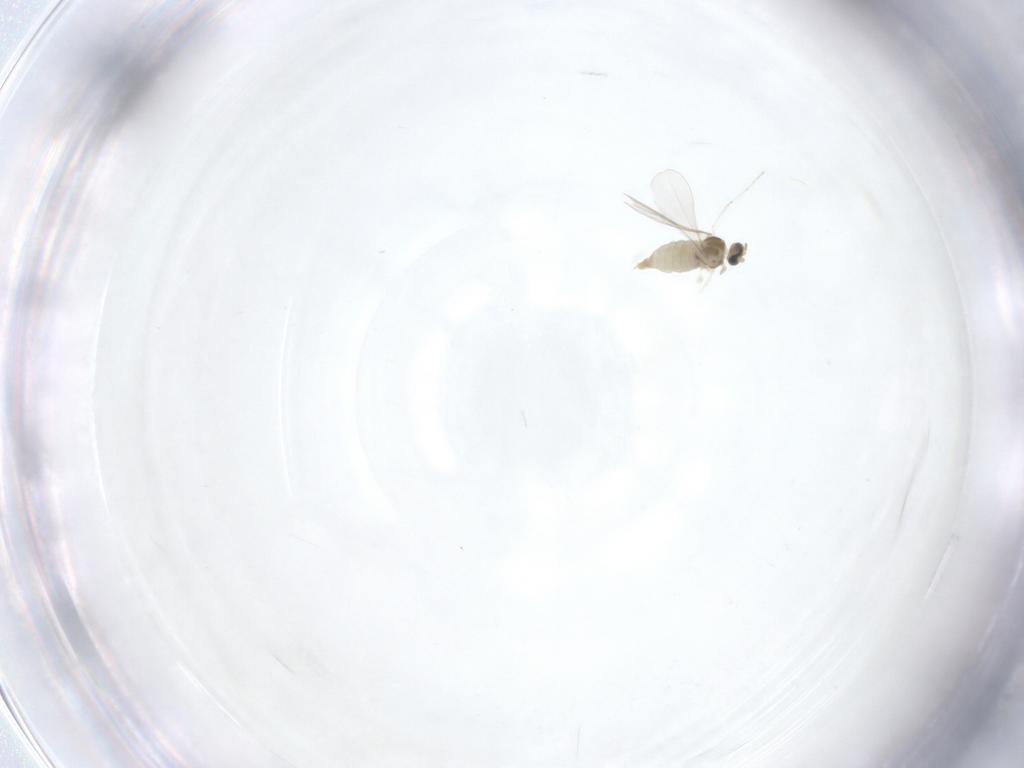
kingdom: Animalia
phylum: Arthropoda
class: Insecta
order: Diptera
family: Chironomidae
